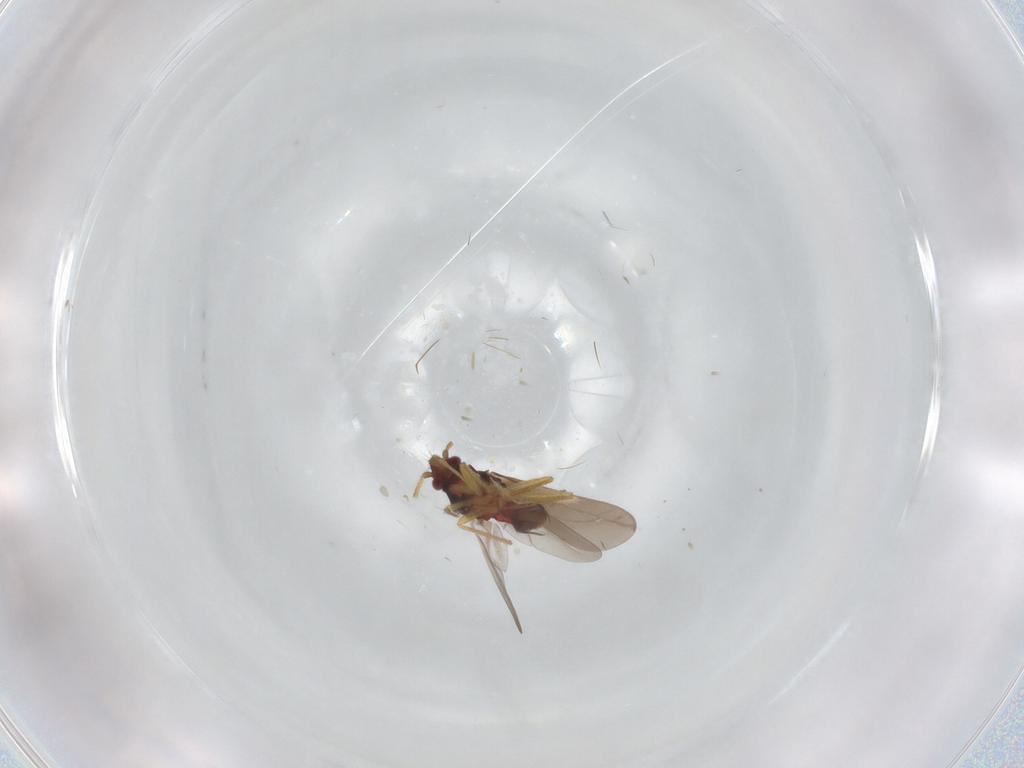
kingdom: Animalia
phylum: Arthropoda
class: Insecta
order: Hemiptera
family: Ceratocombidae
